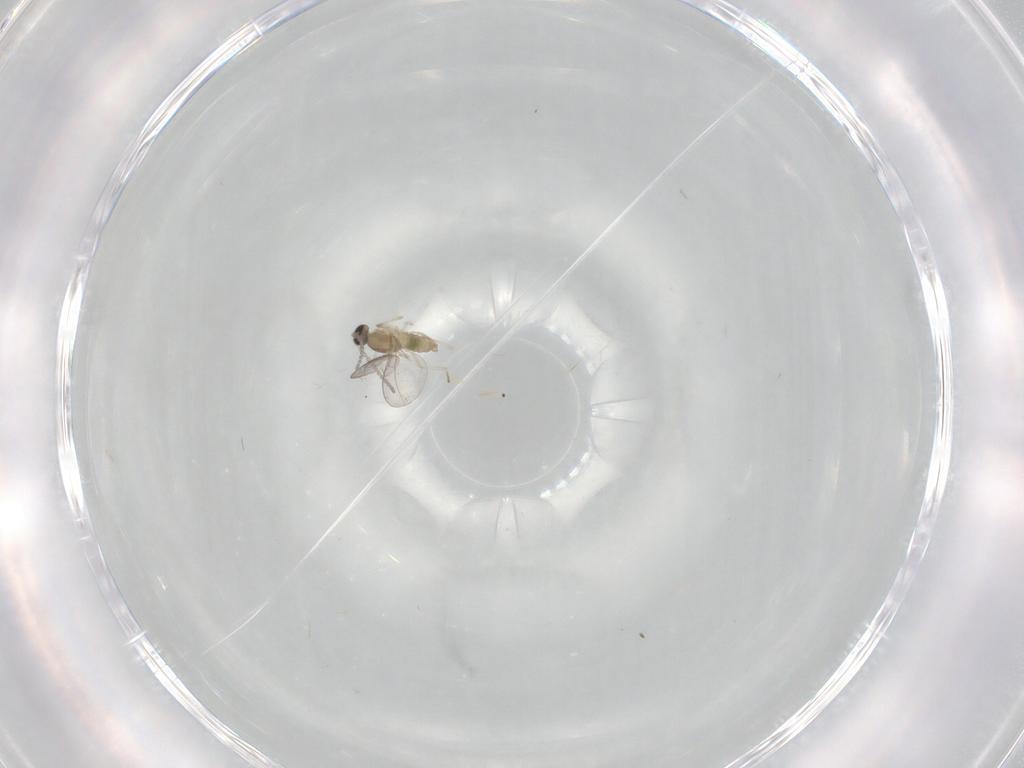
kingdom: Animalia
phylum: Arthropoda
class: Insecta
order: Diptera
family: Cecidomyiidae
